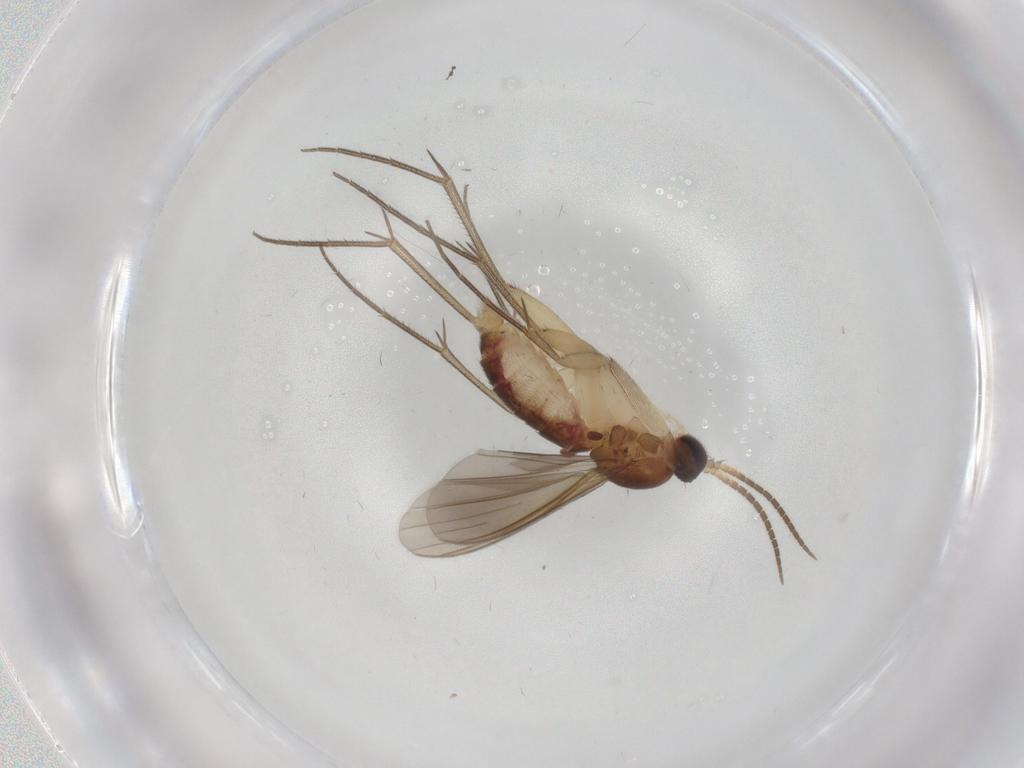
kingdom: Animalia
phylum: Arthropoda
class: Insecta
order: Diptera
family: Mycetophilidae
